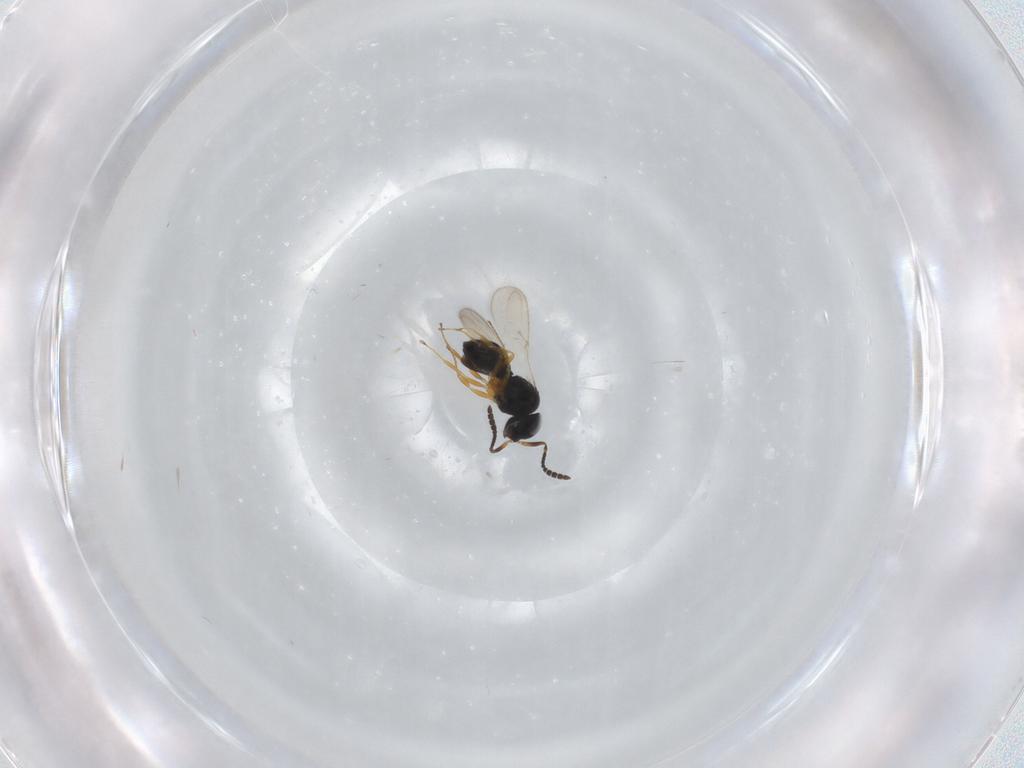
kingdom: Animalia
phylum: Arthropoda
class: Insecta
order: Hymenoptera
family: Scelionidae
